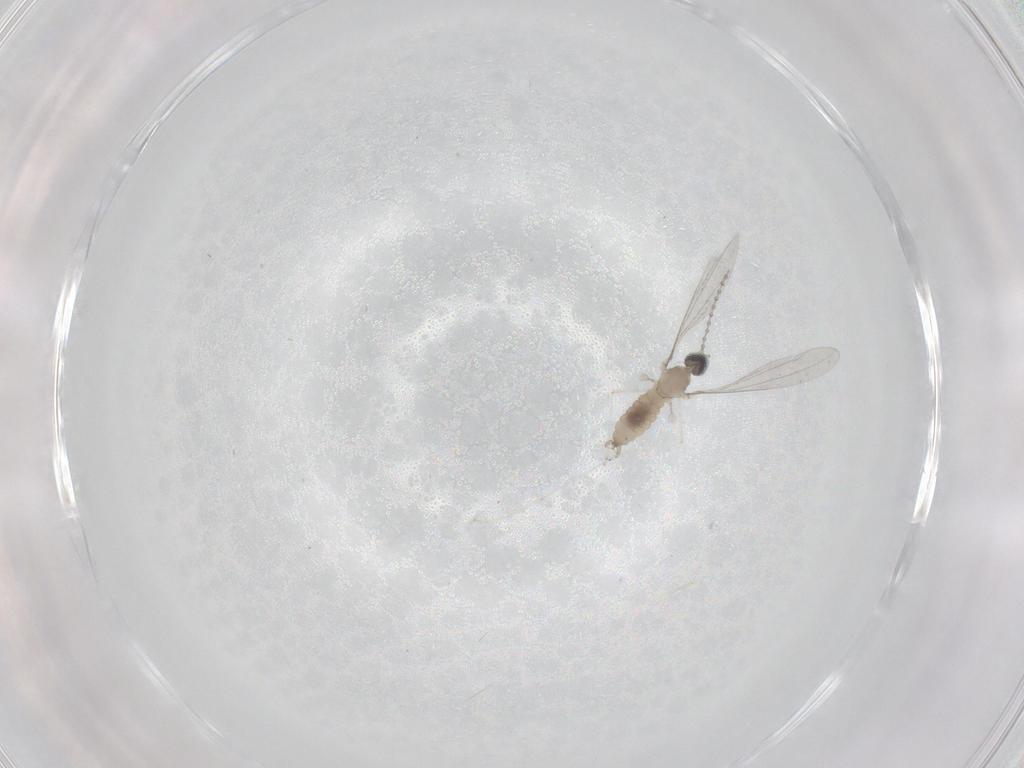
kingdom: Animalia
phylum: Arthropoda
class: Insecta
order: Diptera
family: Cecidomyiidae
